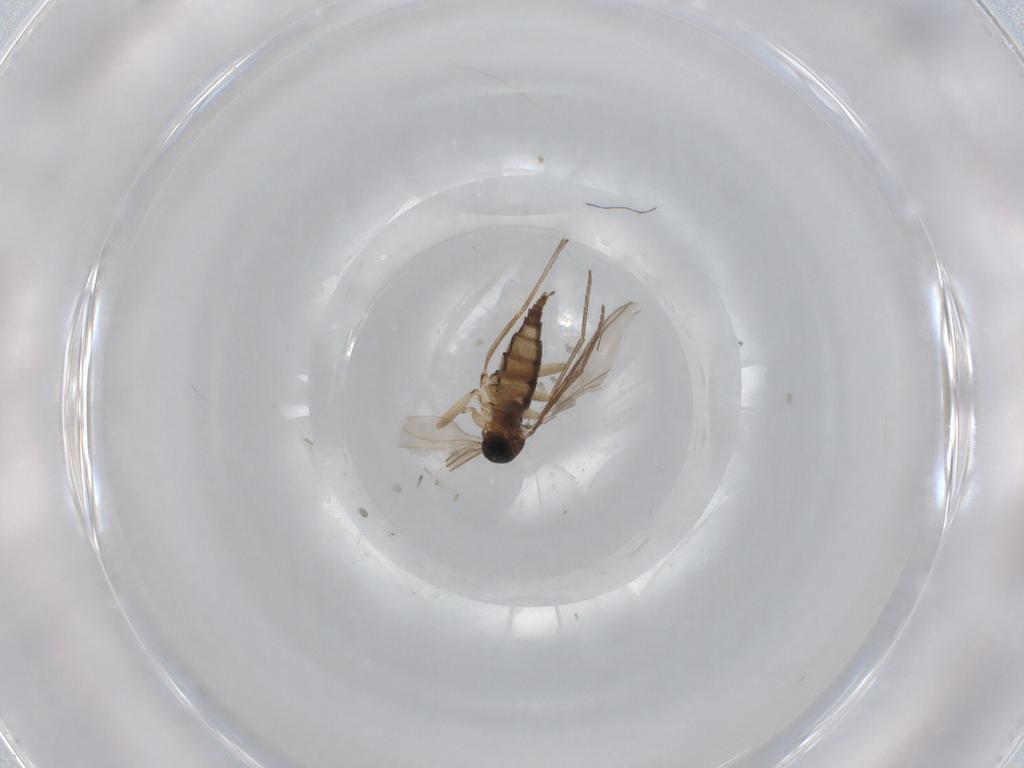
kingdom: Animalia
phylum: Arthropoda
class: Insecta
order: Diptera
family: Sciaridae
